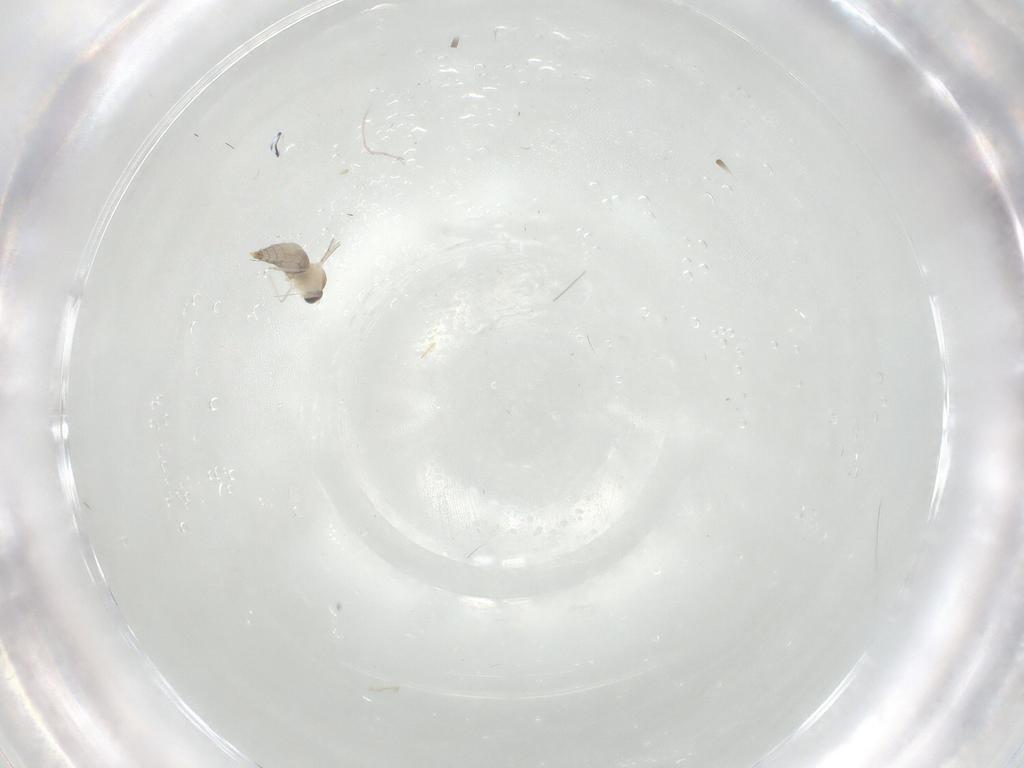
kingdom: Animalia
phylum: Arthropoda
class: Insecta
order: Diptera
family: Cecidomyiidae
